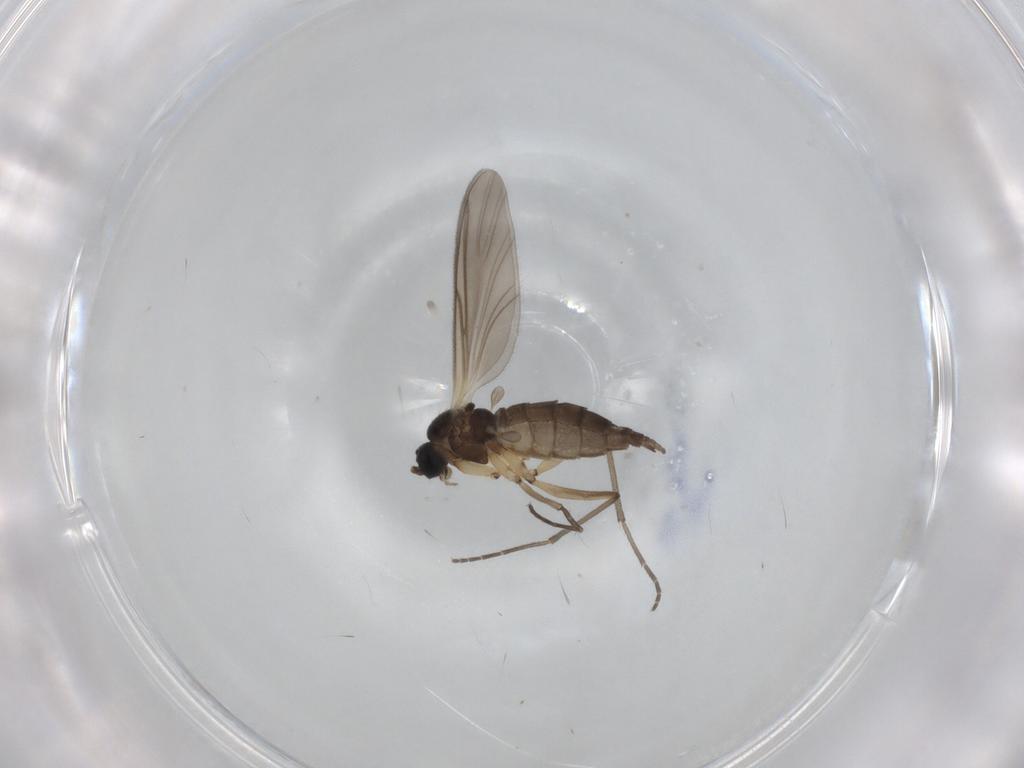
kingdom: Animalia
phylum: Arthropoda
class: Insecta
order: Diptera
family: Sciaridae
